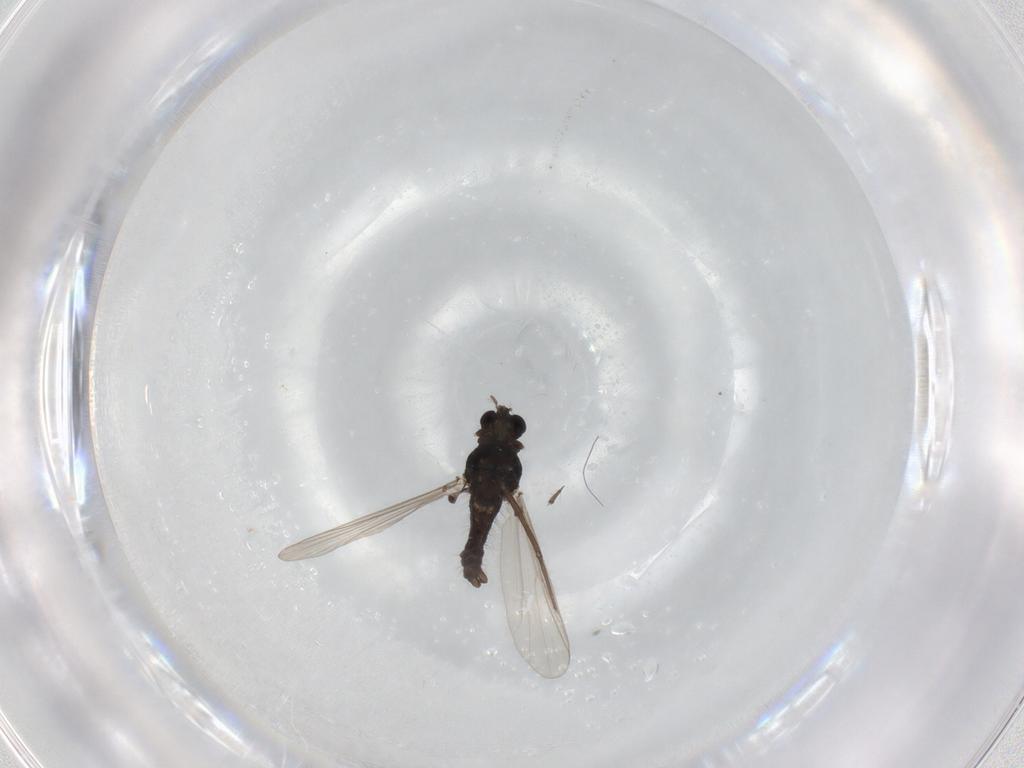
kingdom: Animalia
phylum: Arthropoda
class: Insecta
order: Diptera
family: Chironomidae
